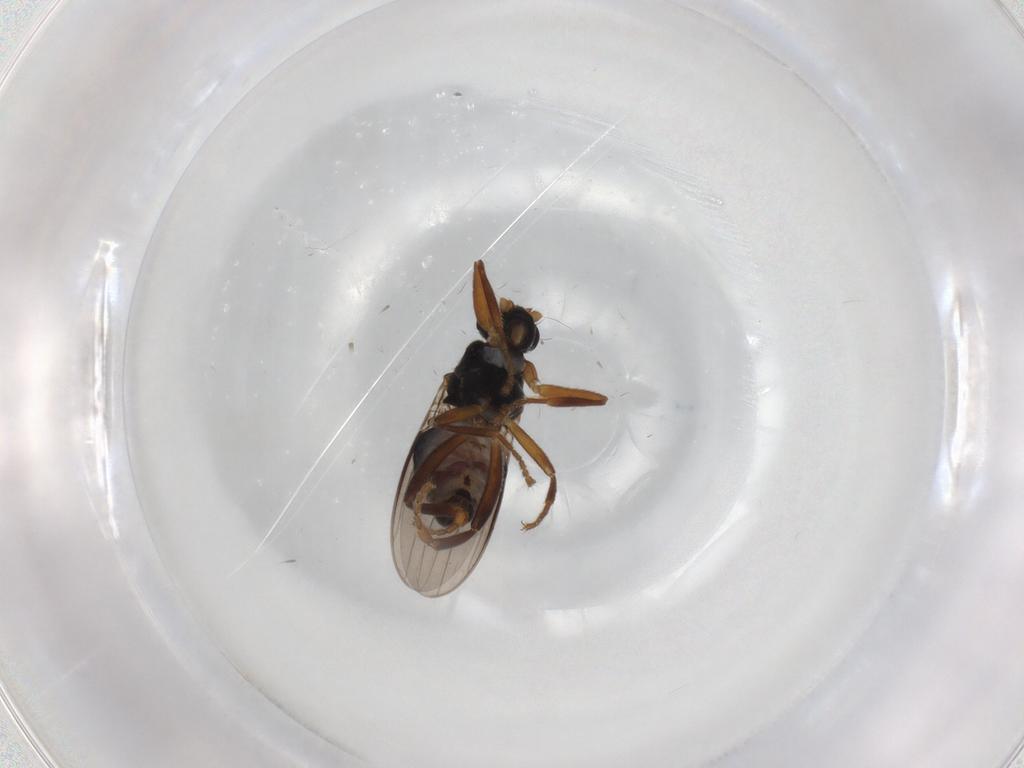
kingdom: Animalia
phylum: Arthropoda
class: Insecta
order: Diptera
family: Sphaeroceridae
